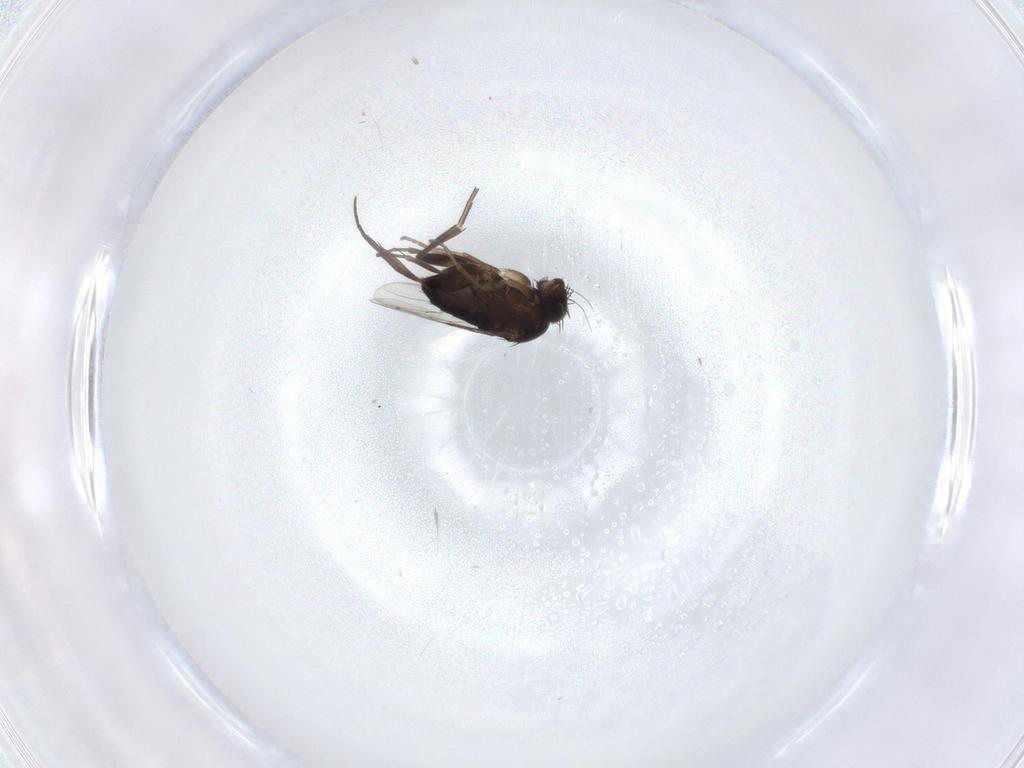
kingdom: Animalia
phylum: Arthropoda
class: Insecta
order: Diptera
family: Phoridae
